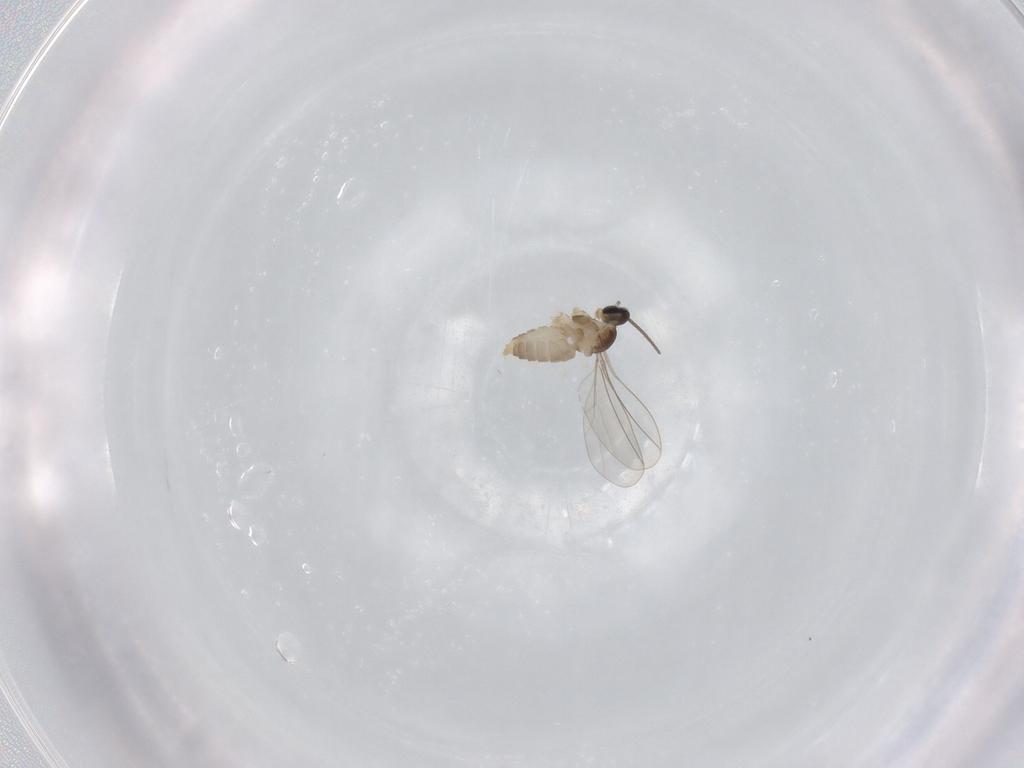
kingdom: Animalia
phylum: Arthropoda
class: Insecta
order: Diptera
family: Cecidomyiidae
